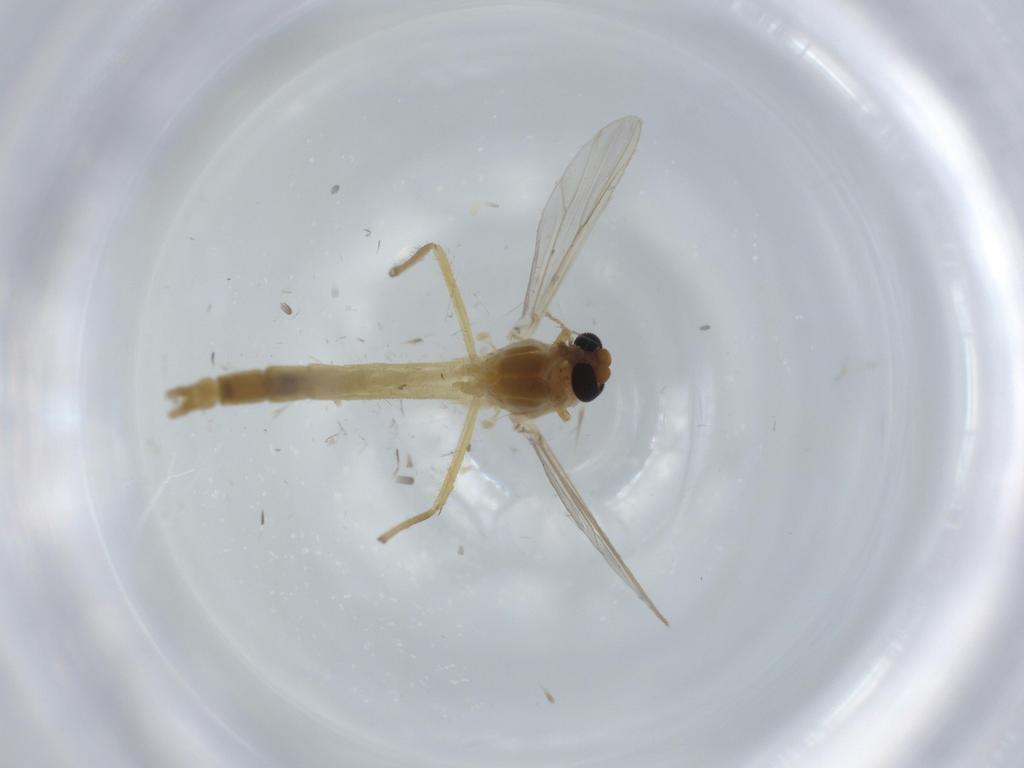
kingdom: Animalia
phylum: Arthropoda
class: Insecta
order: Diptera
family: Chironomidae
